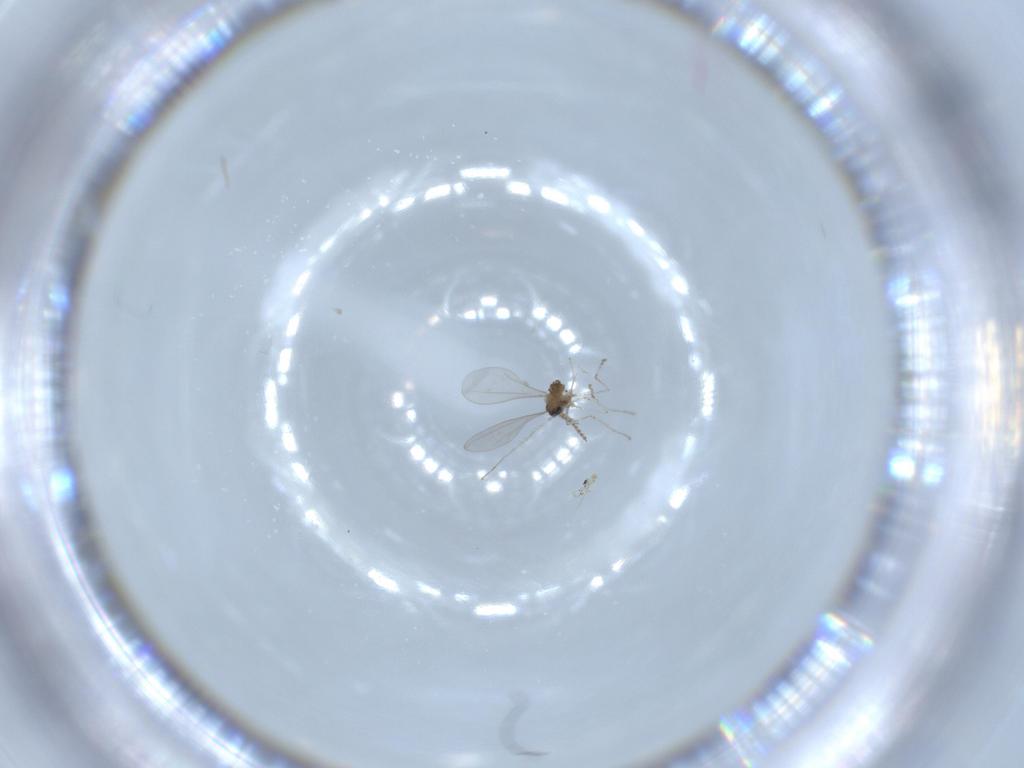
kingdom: Animalia
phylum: Arthropoda
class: Insecta
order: Diptera
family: Cecidomyiidae
